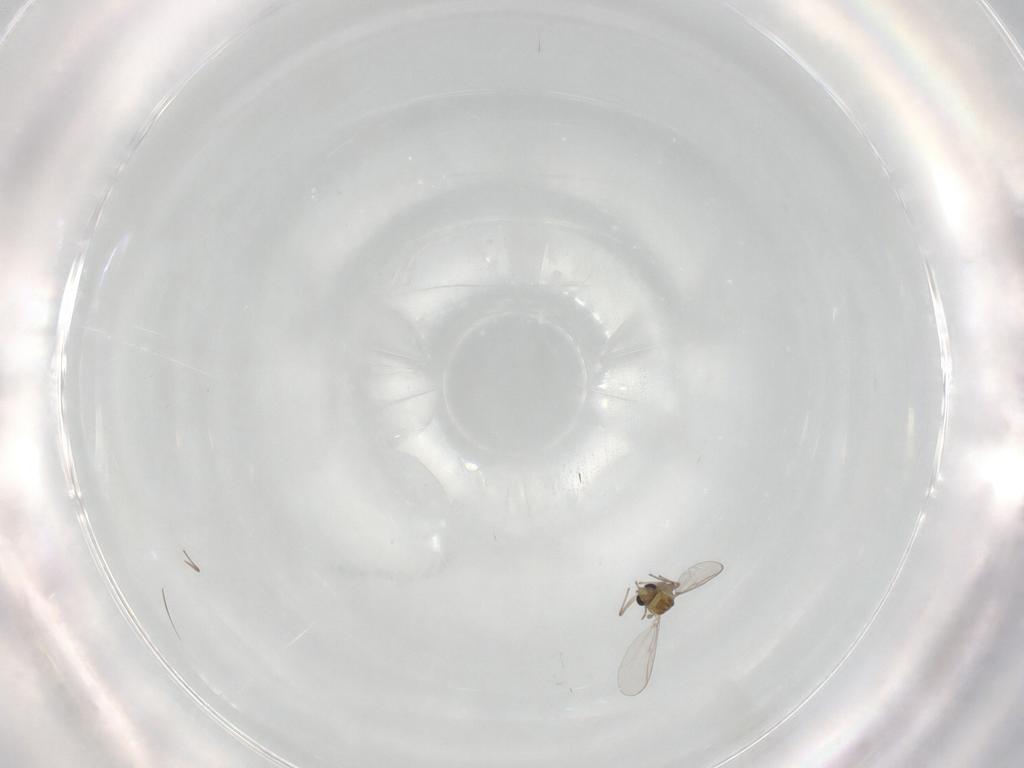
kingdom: Animalia
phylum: Arthropoda
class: Insecta
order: Diptera
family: Chironomidae
